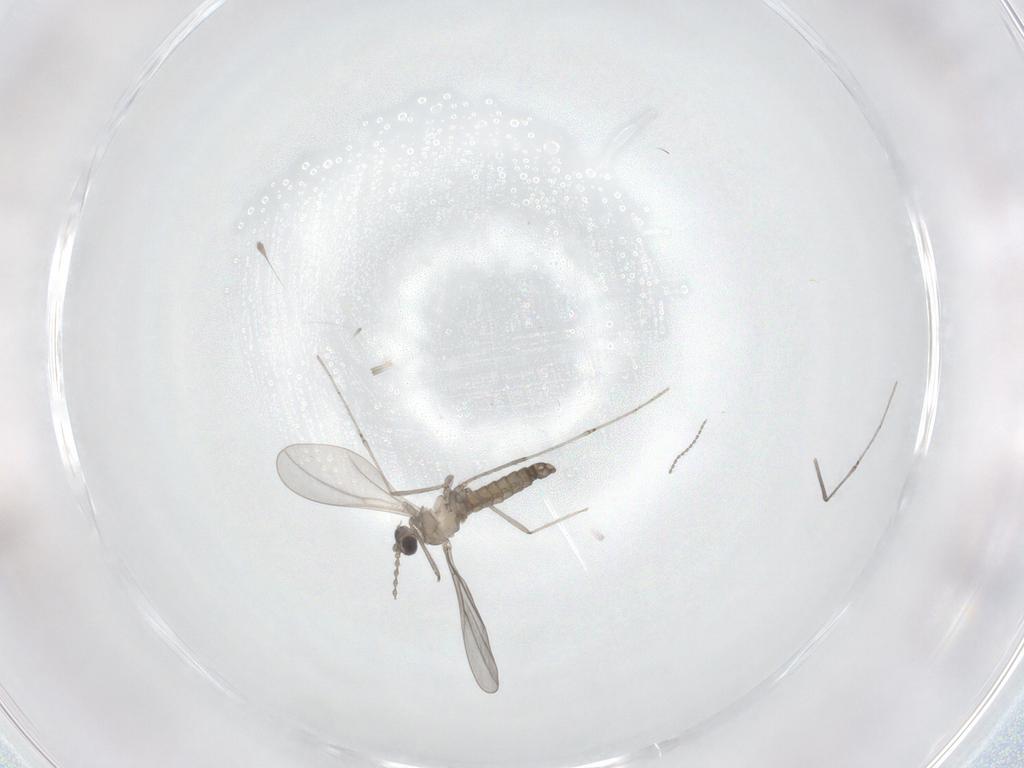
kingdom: Animalia
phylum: Arthropoda
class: Insecta
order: Diptera
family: Cecidomyiidae
